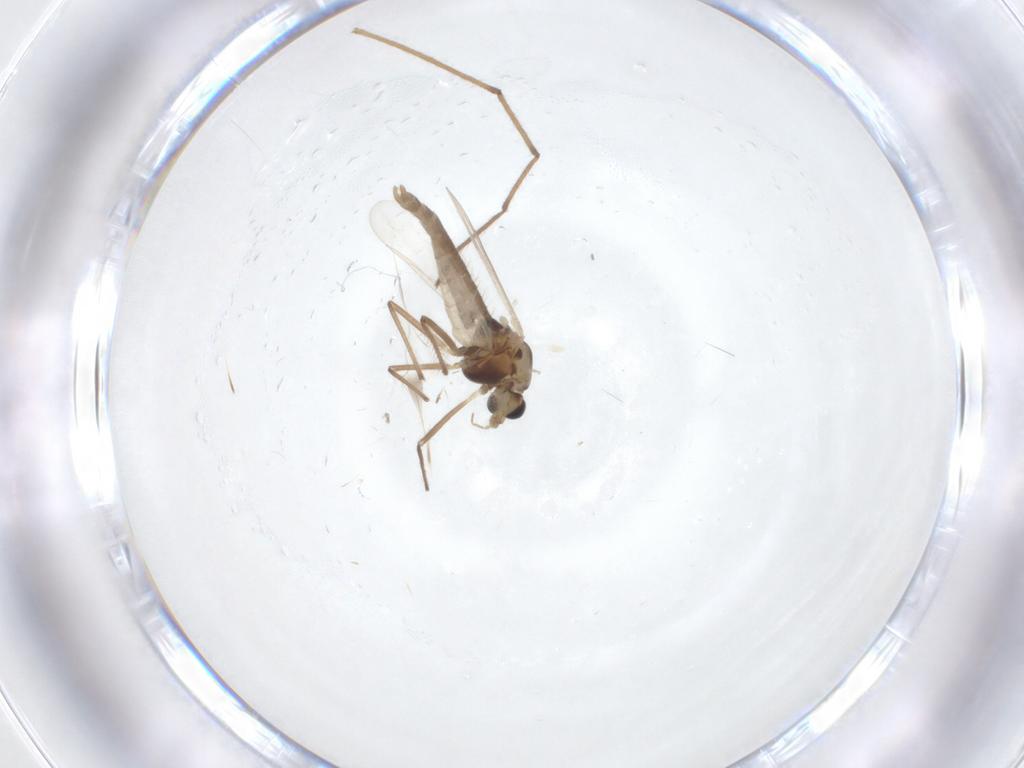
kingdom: Animalia
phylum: Arthropoda
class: Insecta
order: Diptera
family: Chironomidae
